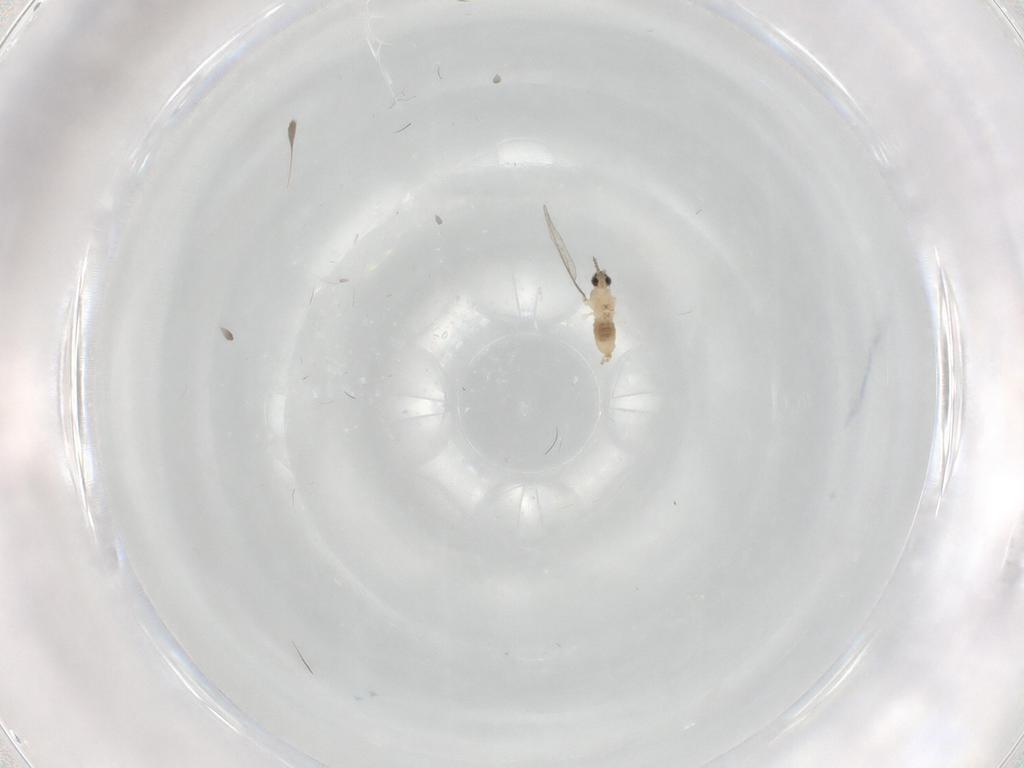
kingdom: Animalia
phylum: Arthropoda
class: Insecta
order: Diptera
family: Cecidomyiidae
